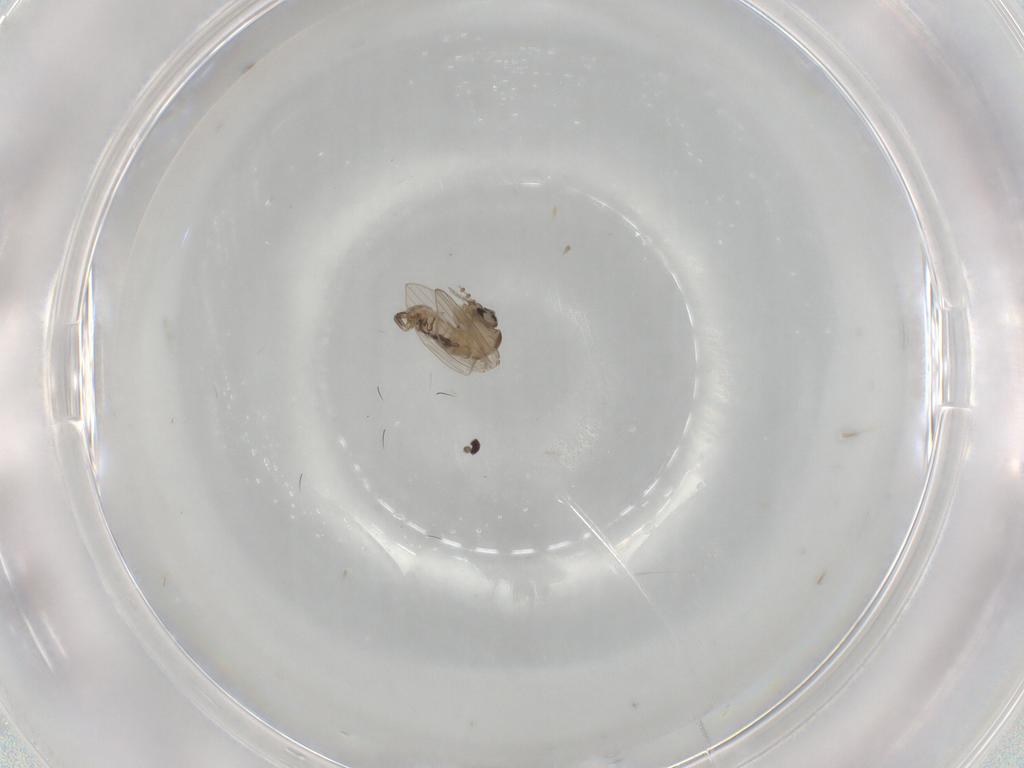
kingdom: Animalia
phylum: Arthropoda
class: Insecta
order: Diptera
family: Psychodidae
